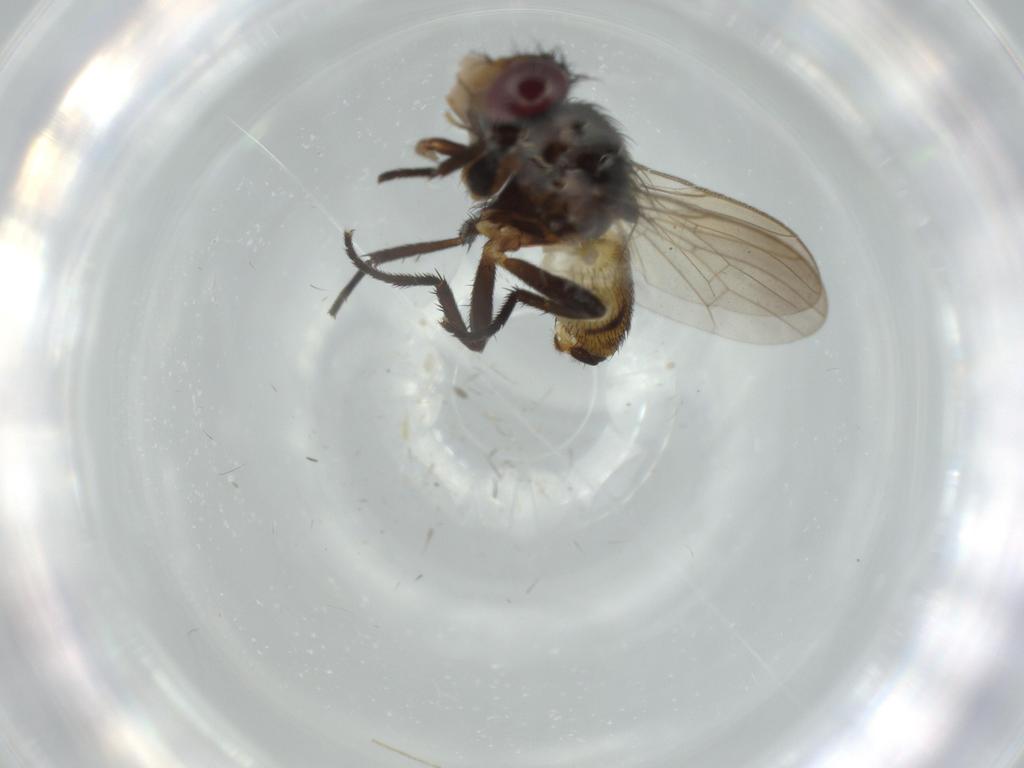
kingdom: Animalia
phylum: Arthropoda
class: Insecta
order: Diptera
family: Anthomyiidae
